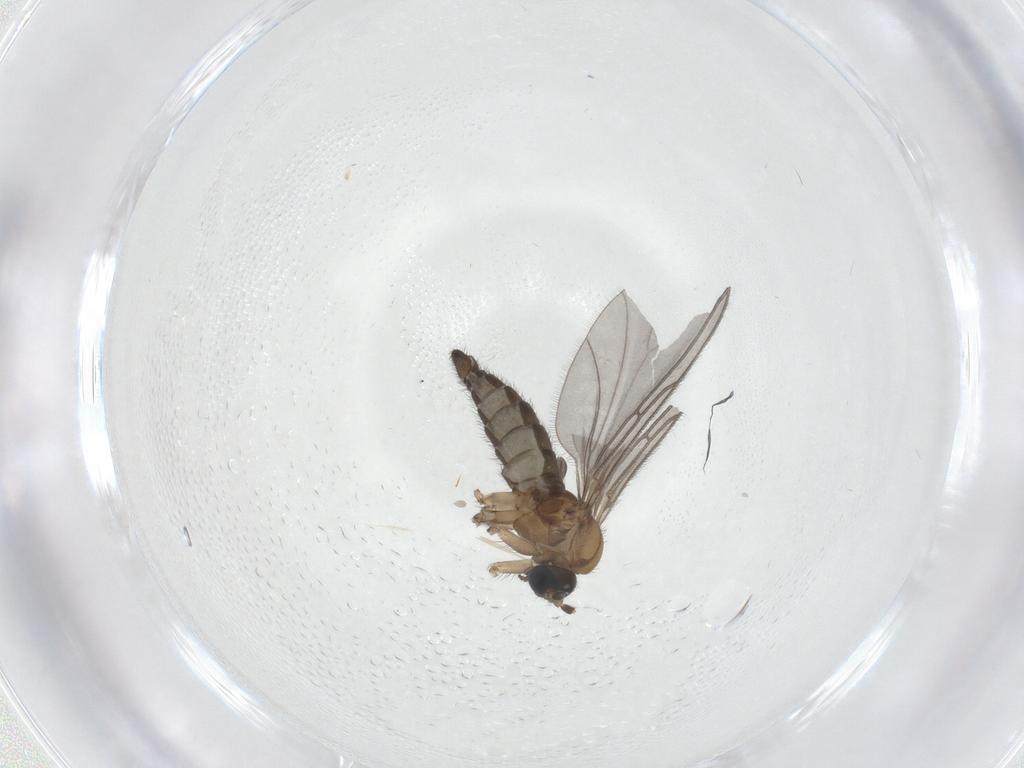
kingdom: Animalia
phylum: Arthropoda
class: Insecta
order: Diptera
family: Sciaridae
